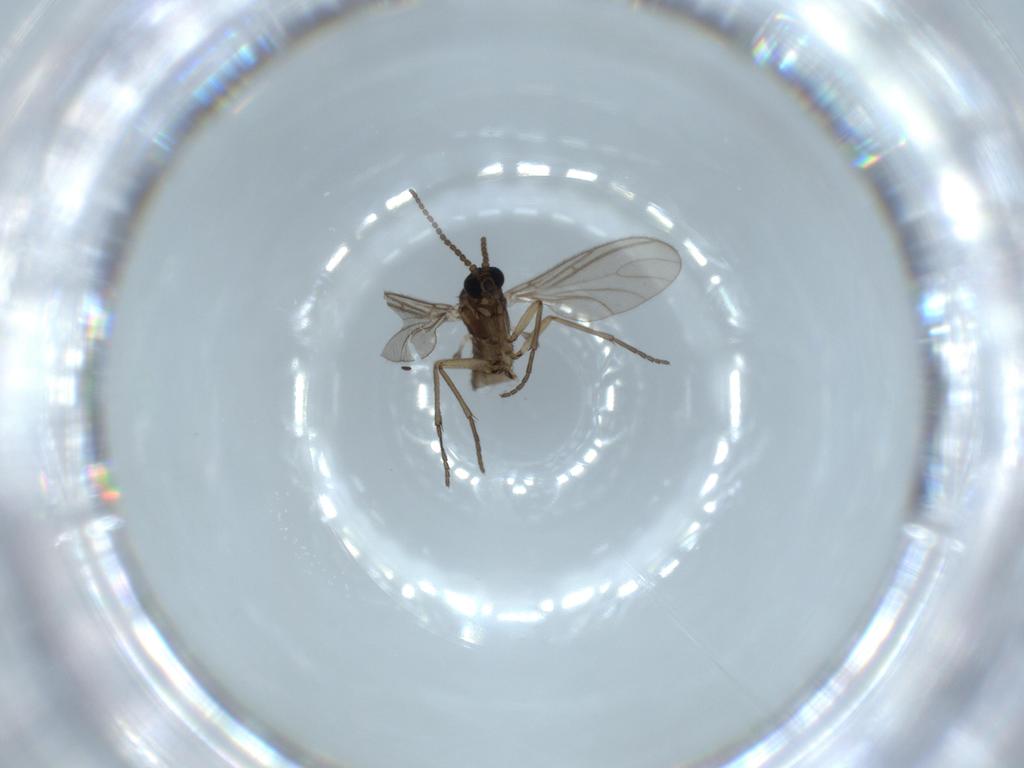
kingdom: Animalia
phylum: Arthropoda
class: Insecta
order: Diptera
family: Sciaridae
